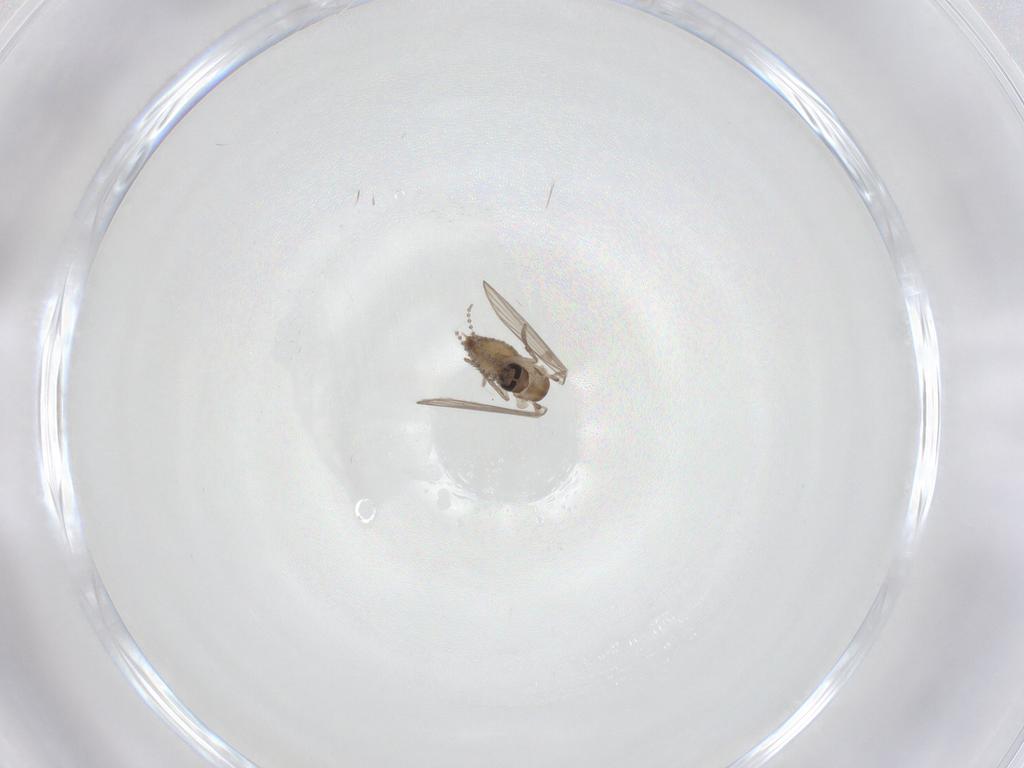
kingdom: Animalia
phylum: Arthropoda
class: Insecta
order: Diptera
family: Psychodidae
